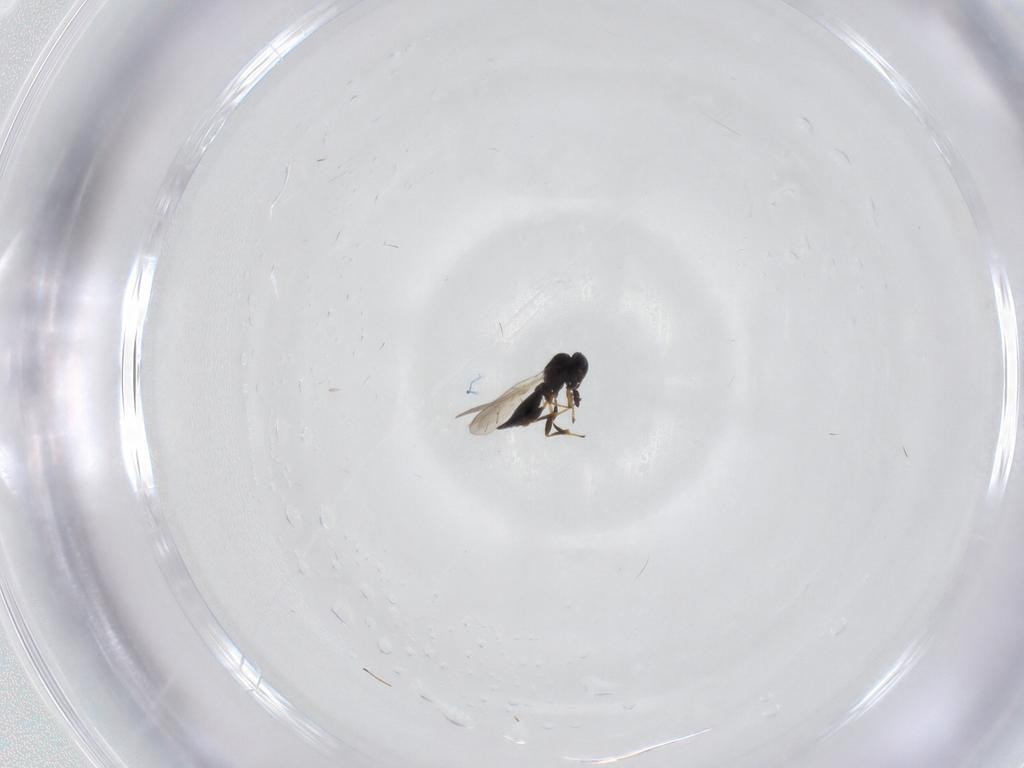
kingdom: Animalia
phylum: Arthropoda
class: Insecta
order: Hymenoptera
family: Platygastridae
